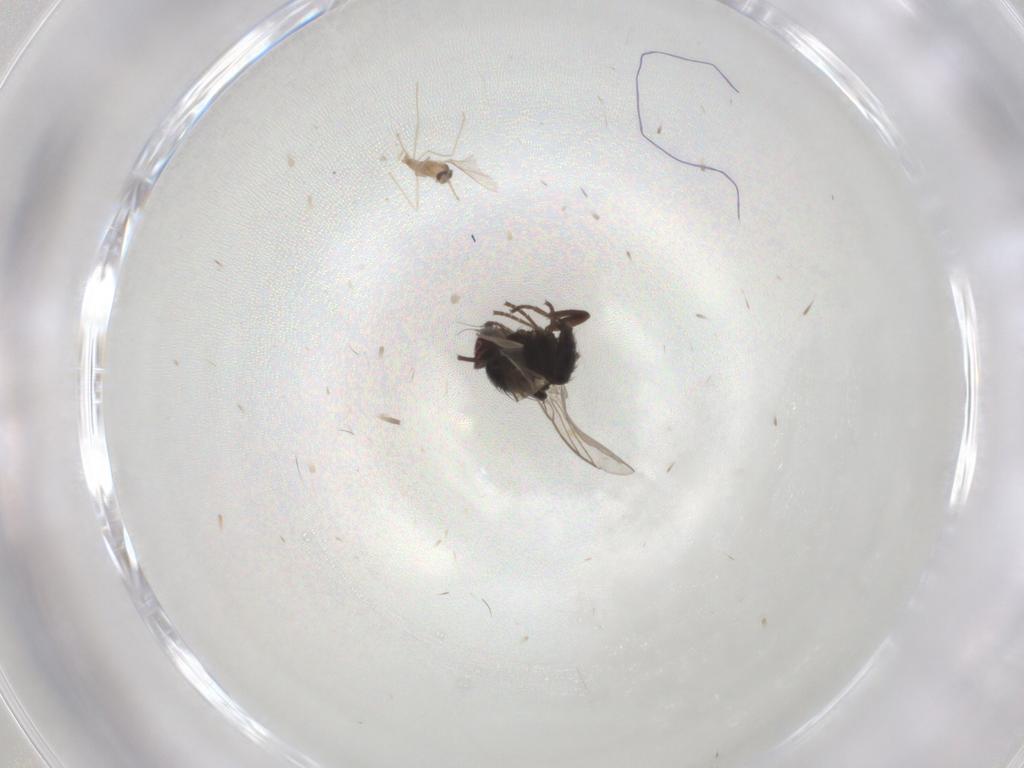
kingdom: Animalia
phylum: Arthropoda
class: Insecta
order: Diptera
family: Cecidomyiidae
